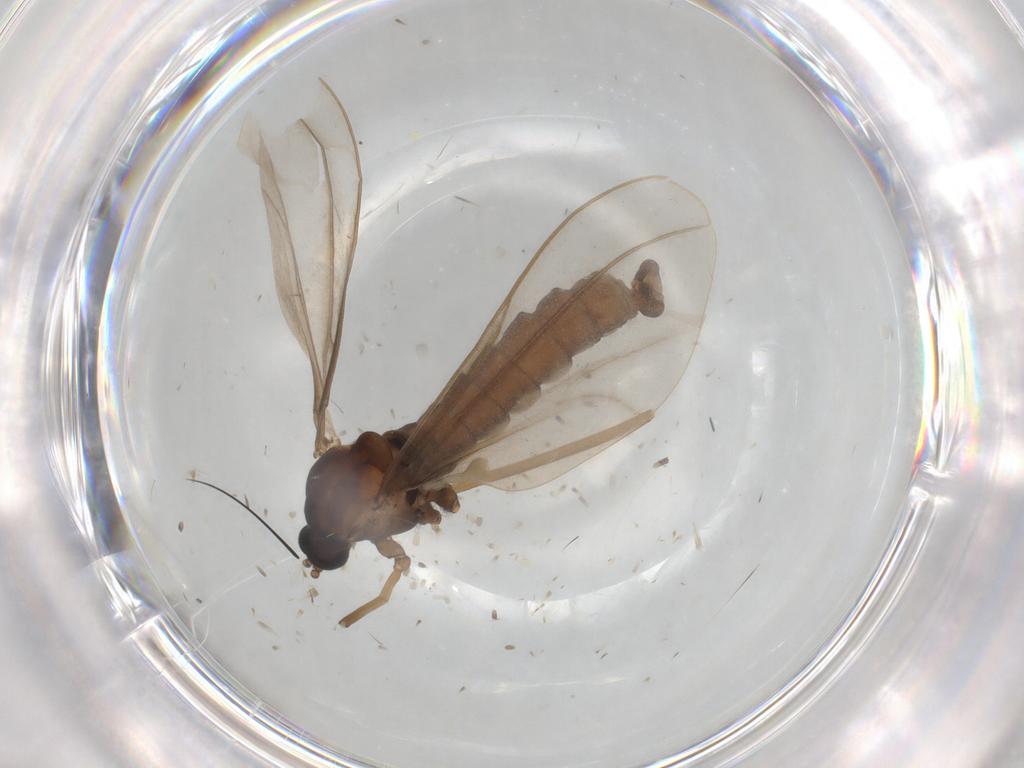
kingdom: Animalia
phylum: Arthropoda
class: Insecta
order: Diptera
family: Cecidomyiidae
